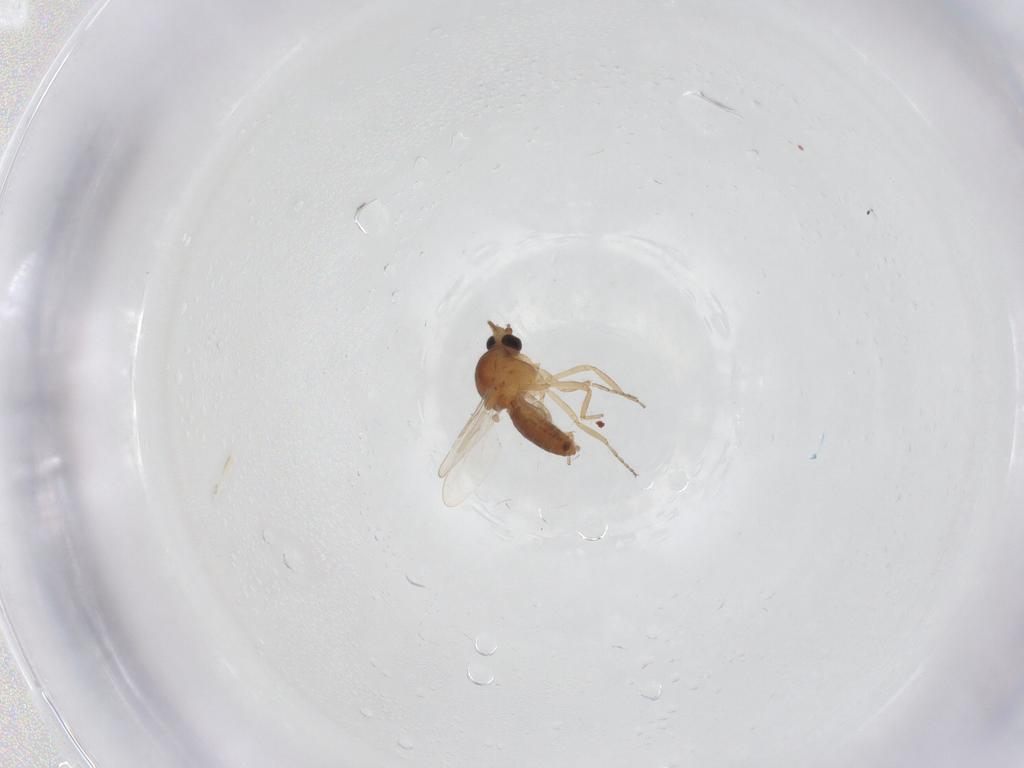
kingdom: Animalia
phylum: Arthropoda
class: Insecta
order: Diptera
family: Ceratopogonidae
